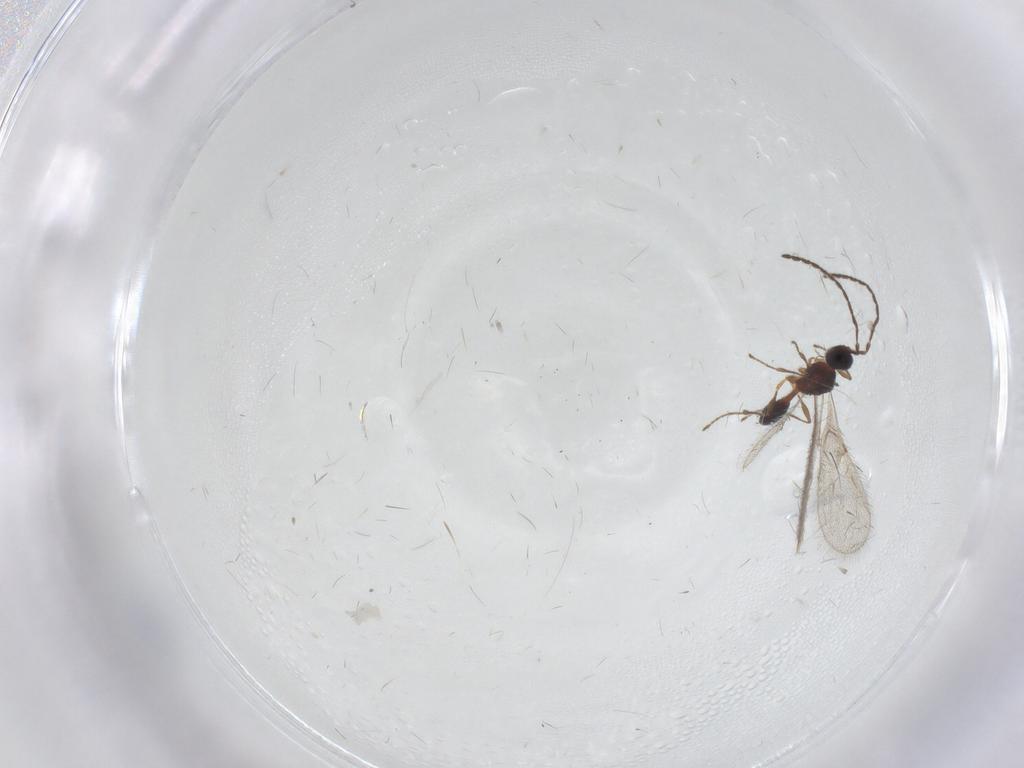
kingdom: Animalia
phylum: Arthropoda
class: Insecta
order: Hymenoptera
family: Diapriidae
